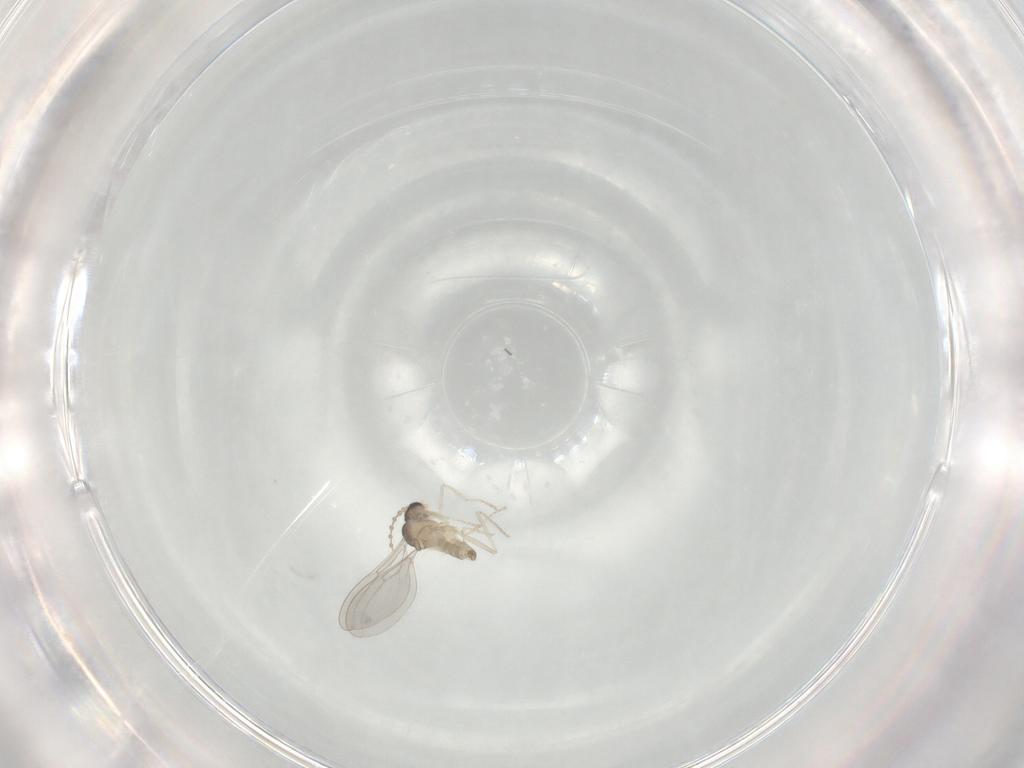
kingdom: Animalia
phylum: Arthropoda
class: Insecta
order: Diptera
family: Cecidomyiidae
